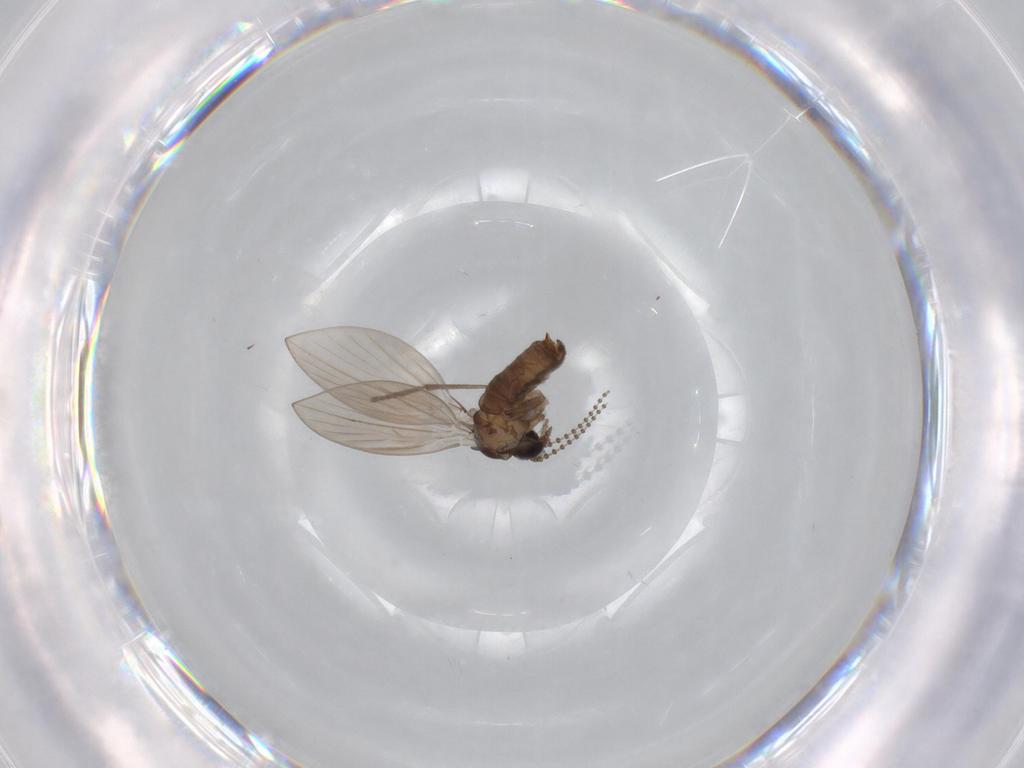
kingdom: Animalia
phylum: Arthropoda
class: Insecta
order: Diptera
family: Psychodidae
